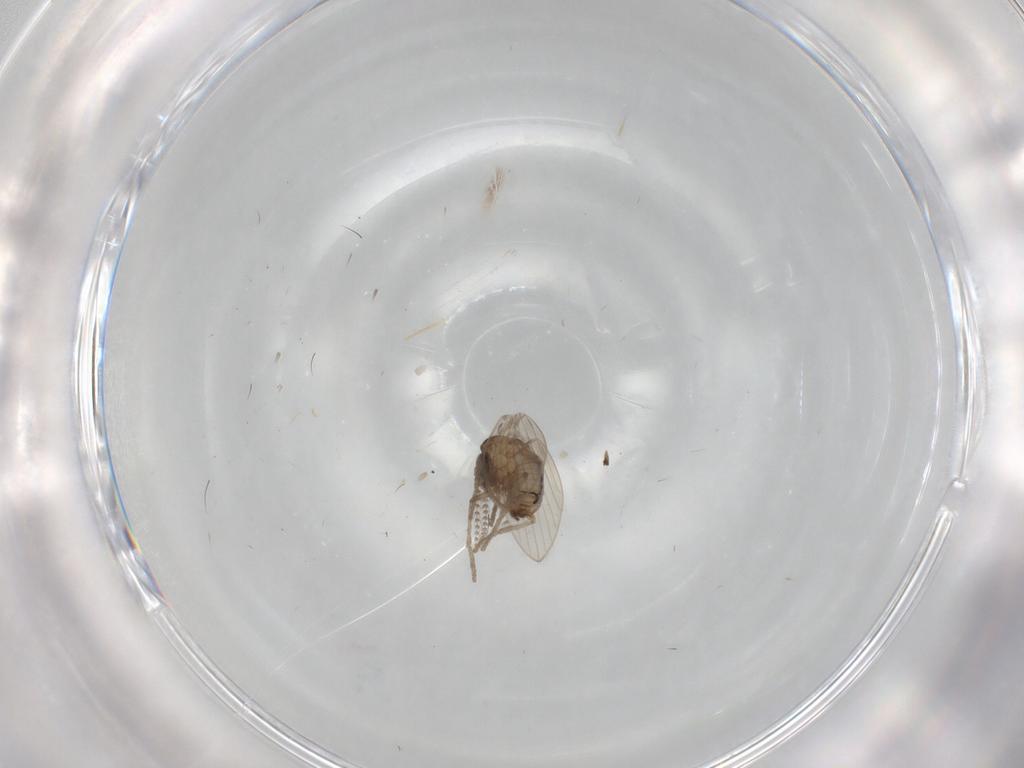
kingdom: Animalia
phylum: Arthropoda
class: Insecta
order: Diptera
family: Psychodidae
